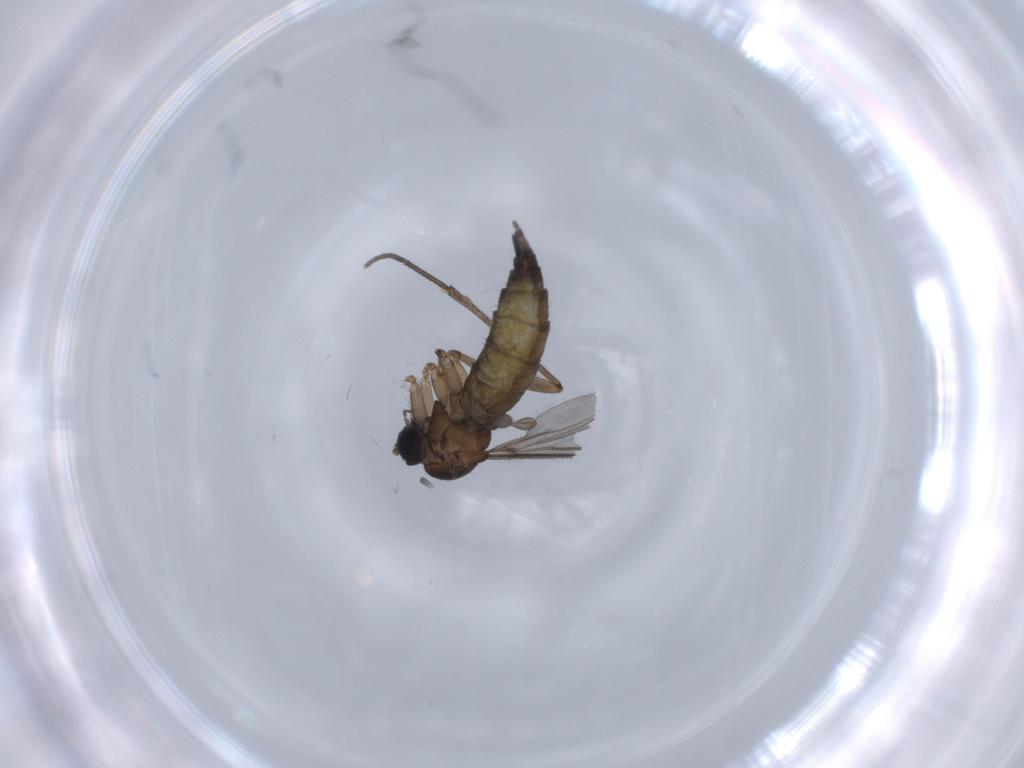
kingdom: Animalia
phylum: Arthropoda
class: Insecta
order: Diptera
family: Sciaridae
